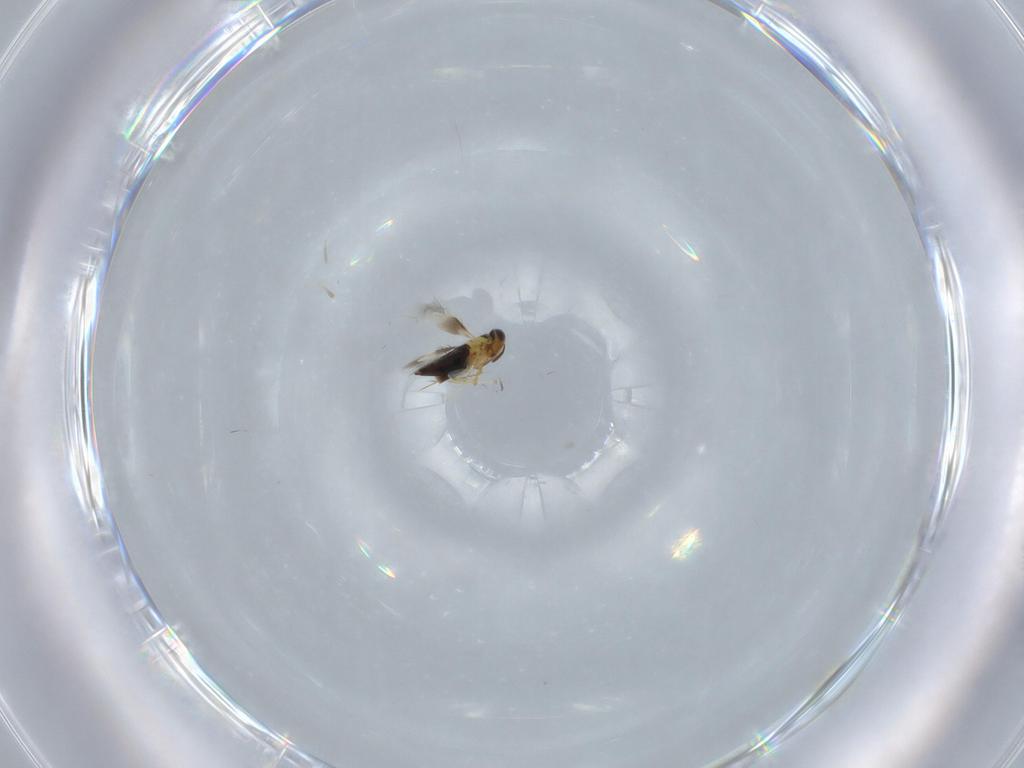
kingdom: Animalia
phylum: Arthropoda
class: Insecta
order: Hymenoptera
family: Signiphoridae
